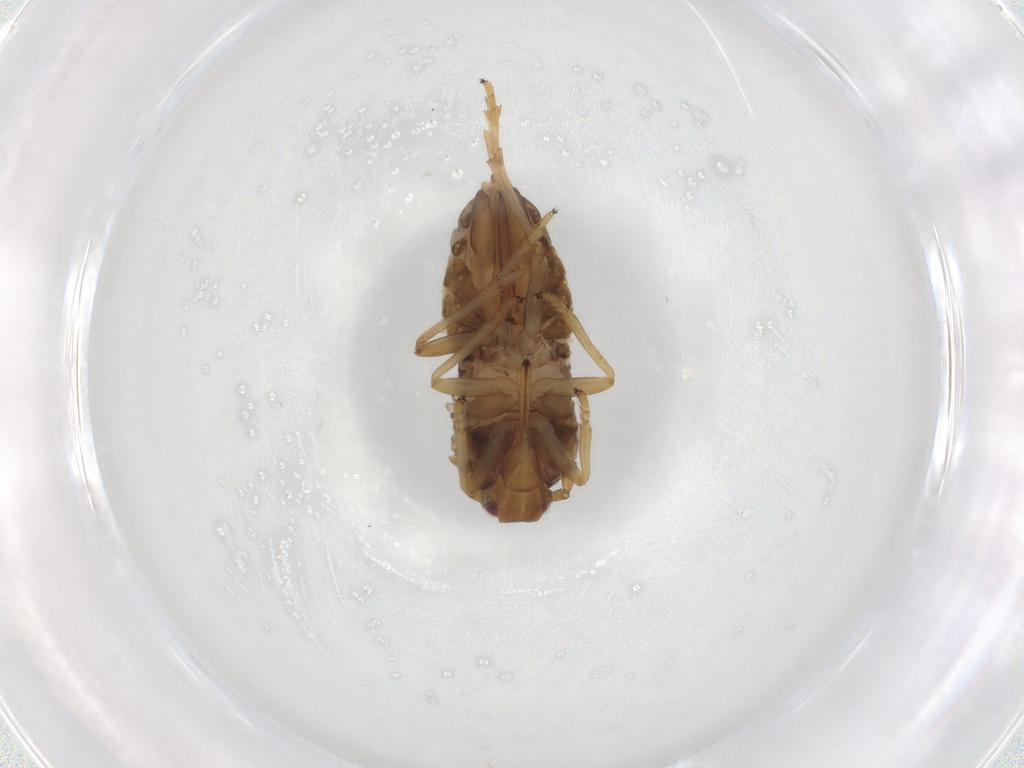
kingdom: Animalia
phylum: Arthropoda
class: Insecta
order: Hemiptera
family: Delphacidae
